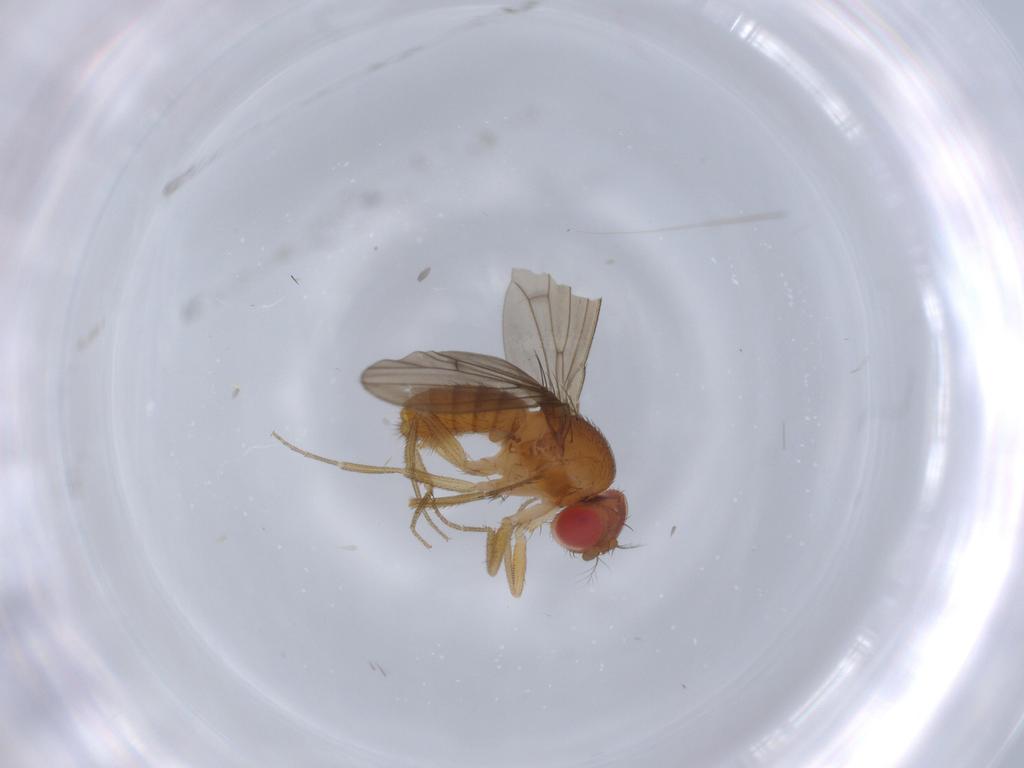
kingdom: Animalia
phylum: Arthropoda
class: Insecta
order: Diptera
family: Drosophilidae
